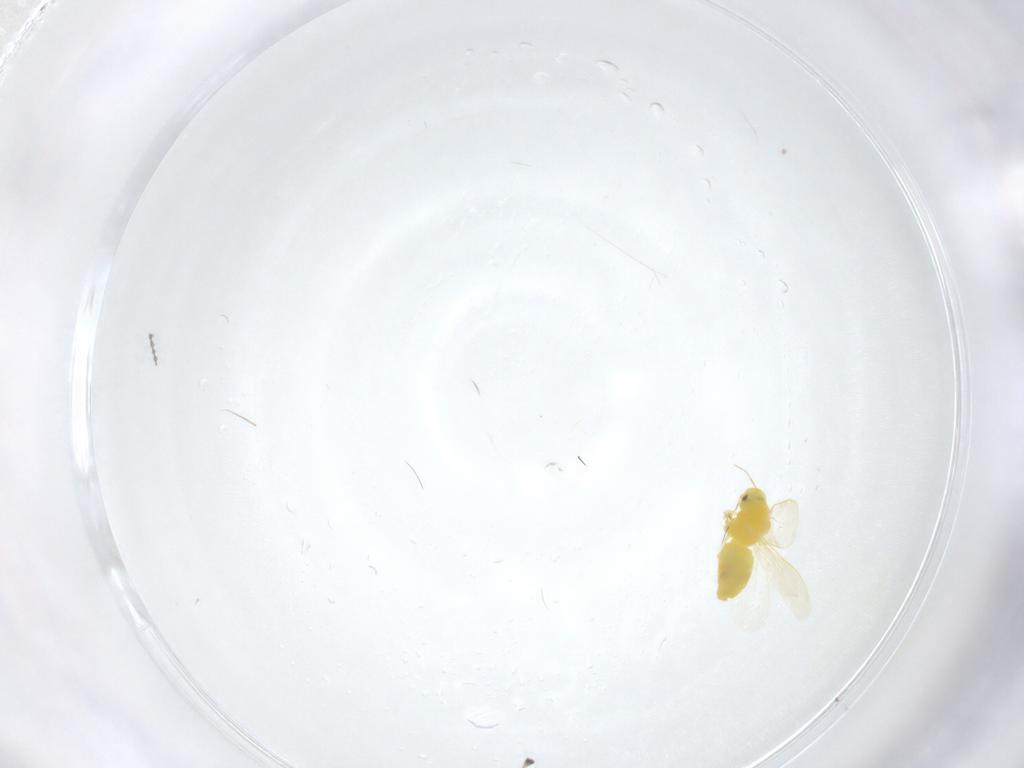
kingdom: Animalia
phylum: Arthropoda
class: Insecta
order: Hemiptera
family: Aleyrodidae
